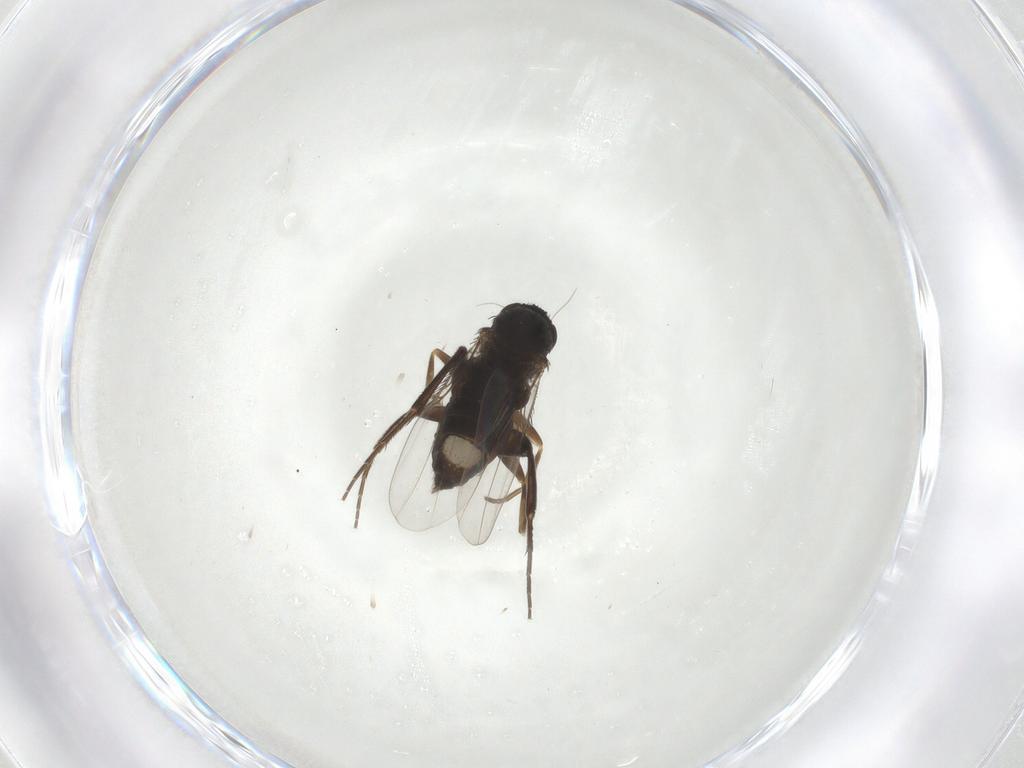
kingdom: Animalia
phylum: Arthropoda
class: Insecta
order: Diptera
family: Phoridae
